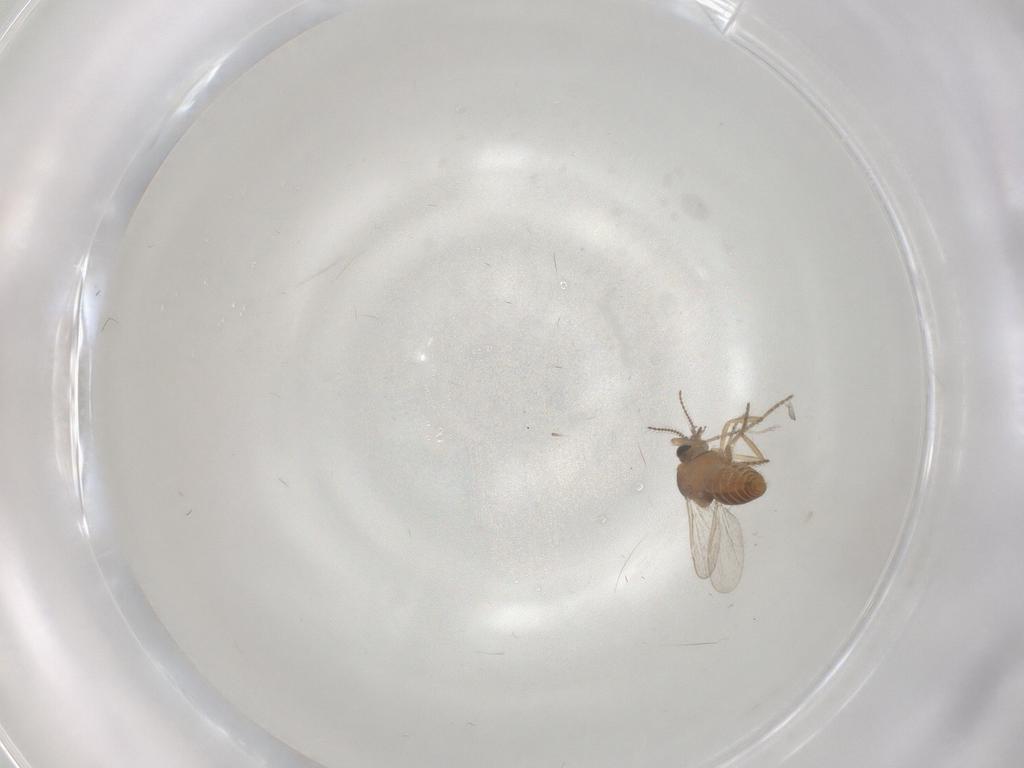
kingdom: Animalia
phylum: Arthropoda
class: Insecta
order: Diptera
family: Ceratopogonidae
